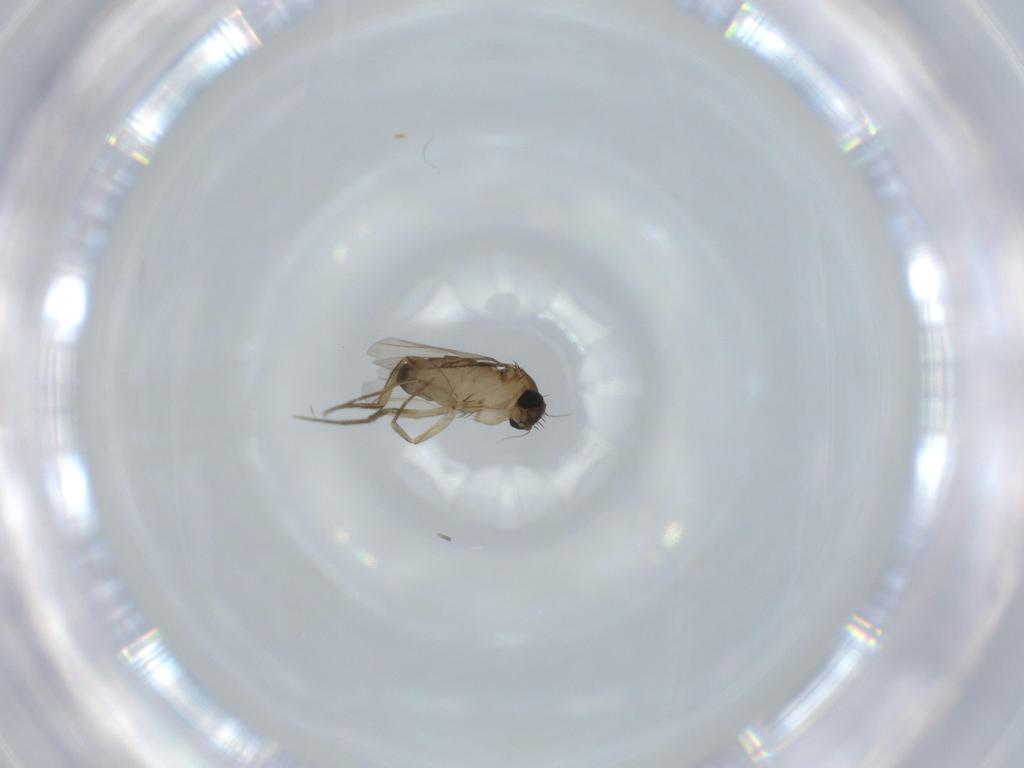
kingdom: Animalia
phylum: Arthropoda
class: Insecta
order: Diptera
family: Phoridae
